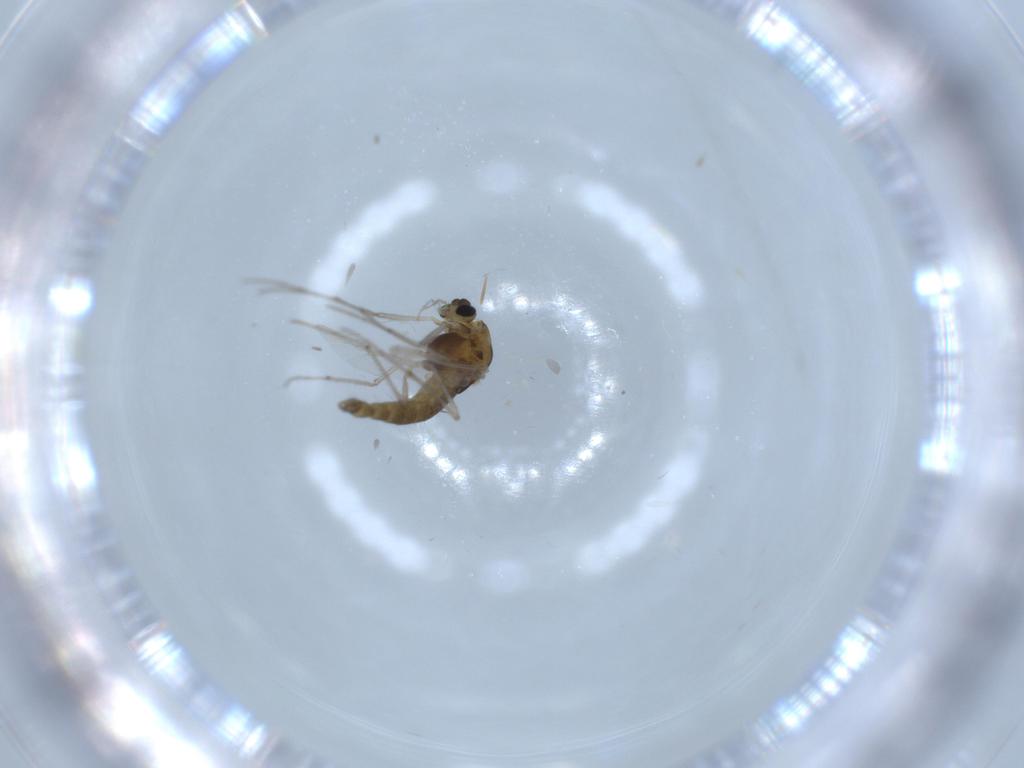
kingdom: Animalia
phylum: Arthropoda
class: Insecta
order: Diptera
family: Chironomidae
